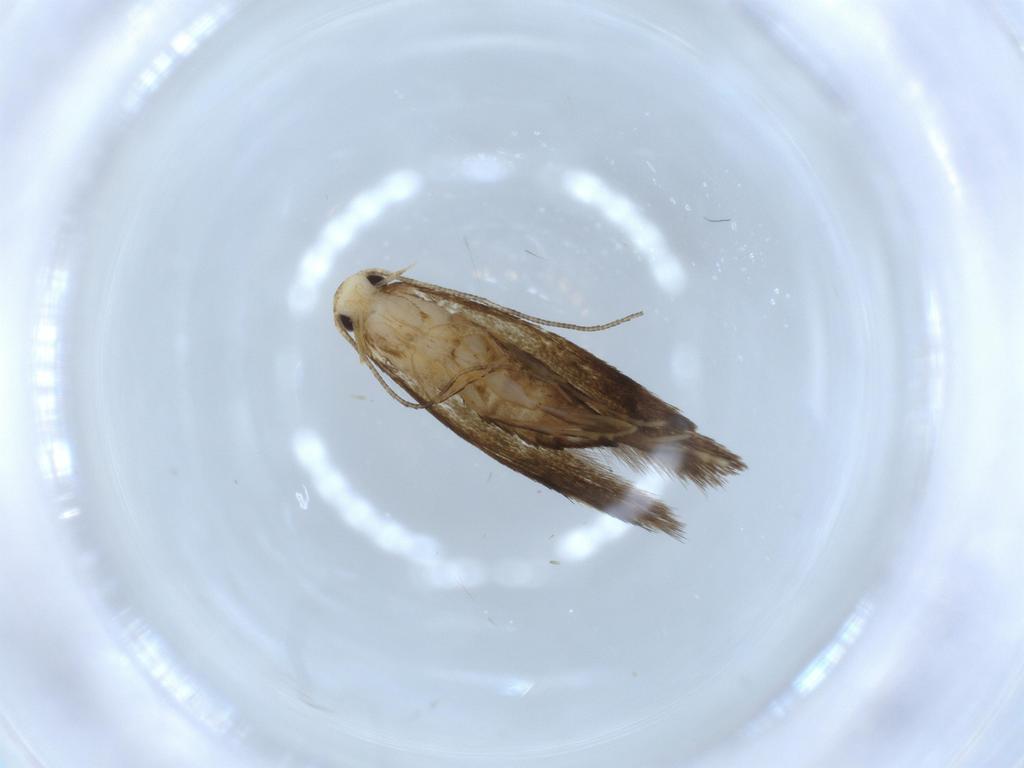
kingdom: Animalia
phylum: Arthropoda
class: Insecta
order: Lepidoptera
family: Tineidae
